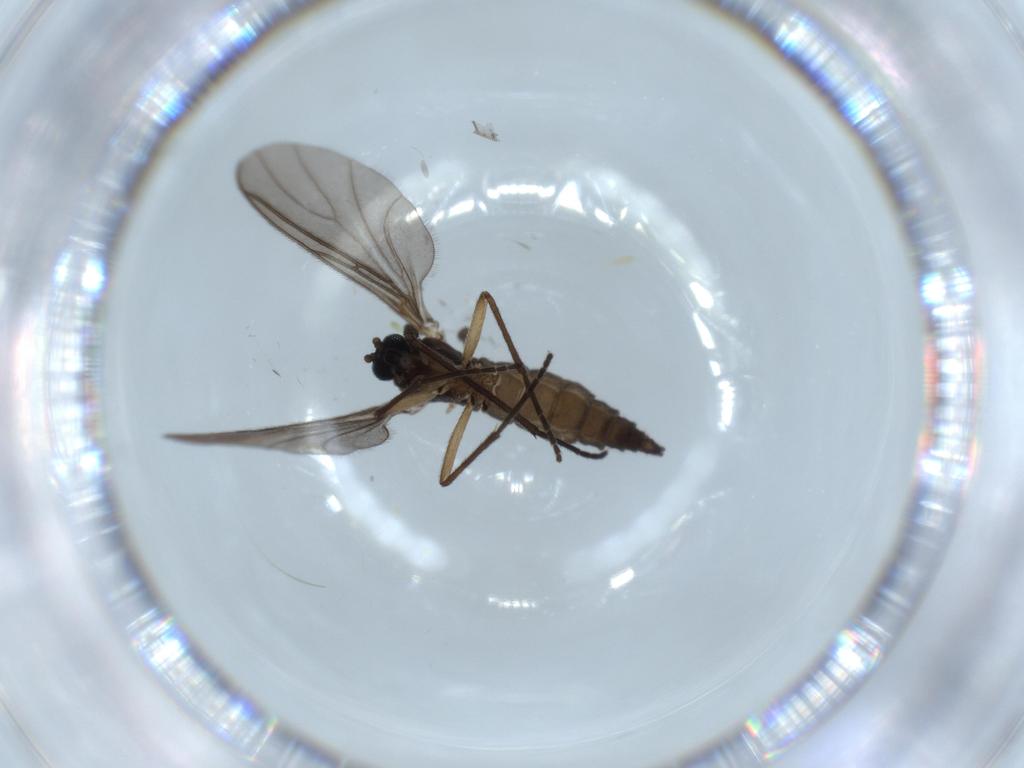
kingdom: Animalia
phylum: Arthropoda
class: Insecta
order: Diptera
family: Sciaridae
